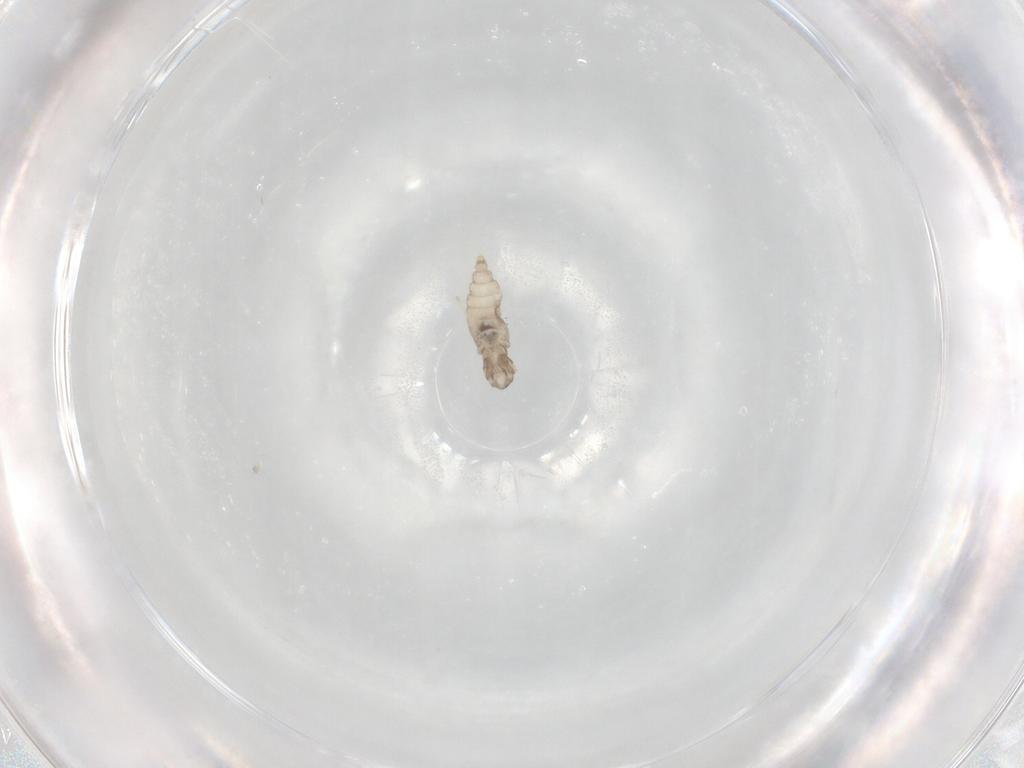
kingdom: Animalia
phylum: Arthropoda
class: Insecta
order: Diptera
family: Cecidomyiidae
